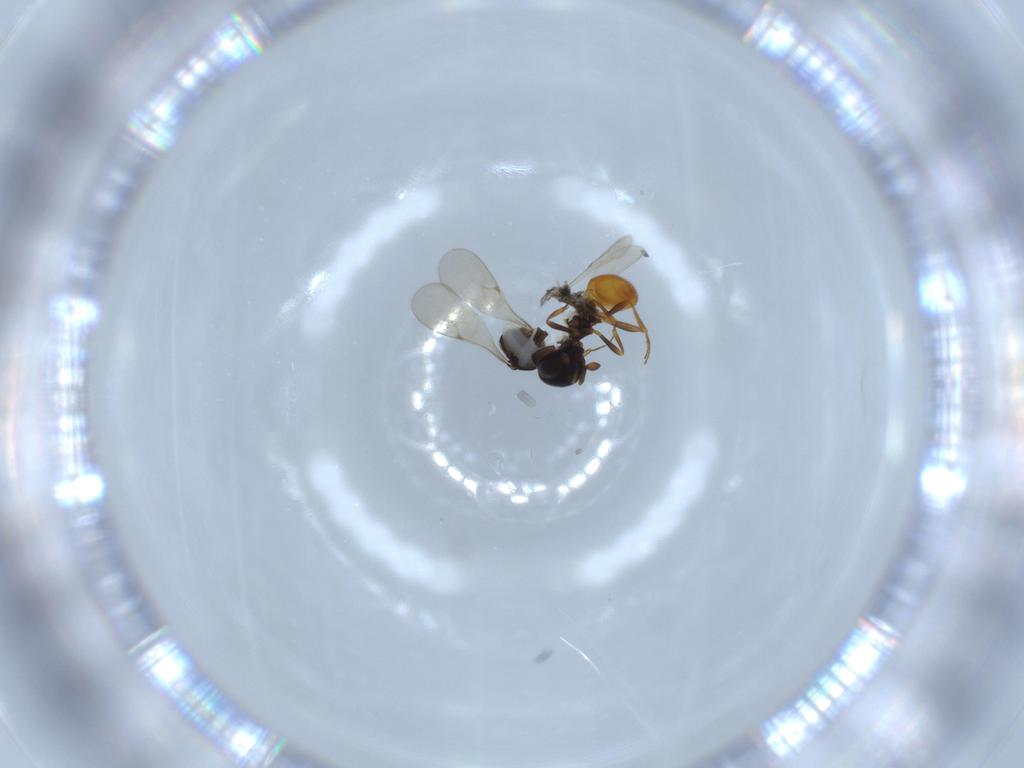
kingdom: Animalia
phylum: Arthropoda
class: Insecta
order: Hymenoptera
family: Scelionidae
